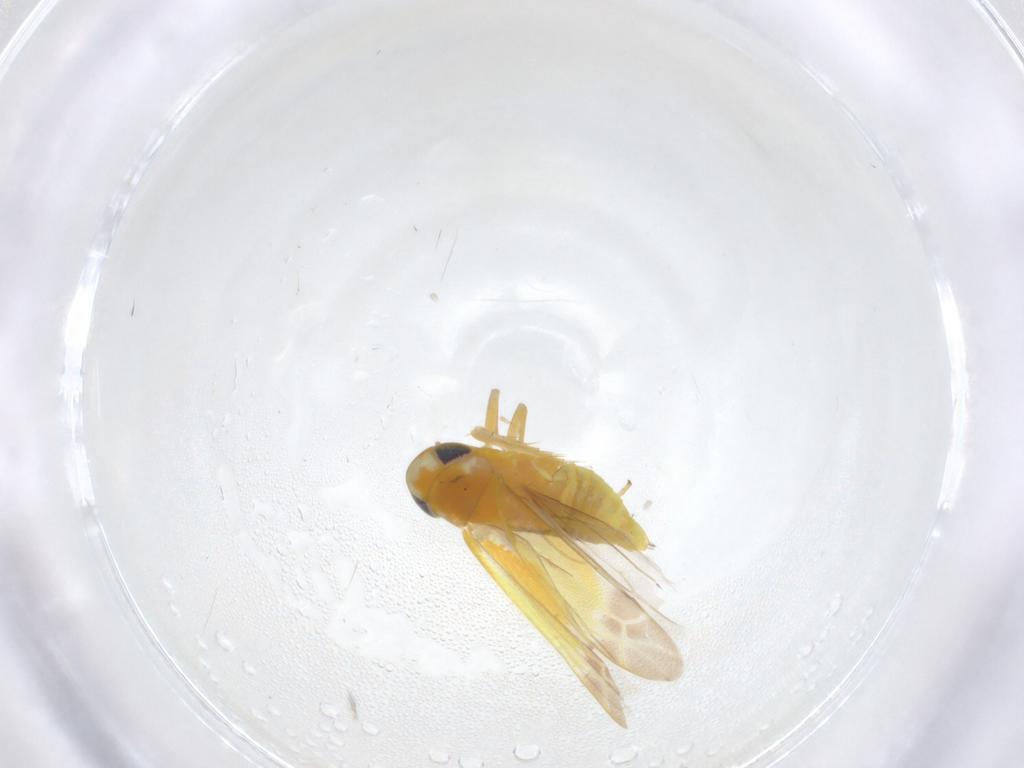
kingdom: Animalia
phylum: Arthropoda
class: Insecta
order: Hemiptera
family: Cicadellidae
